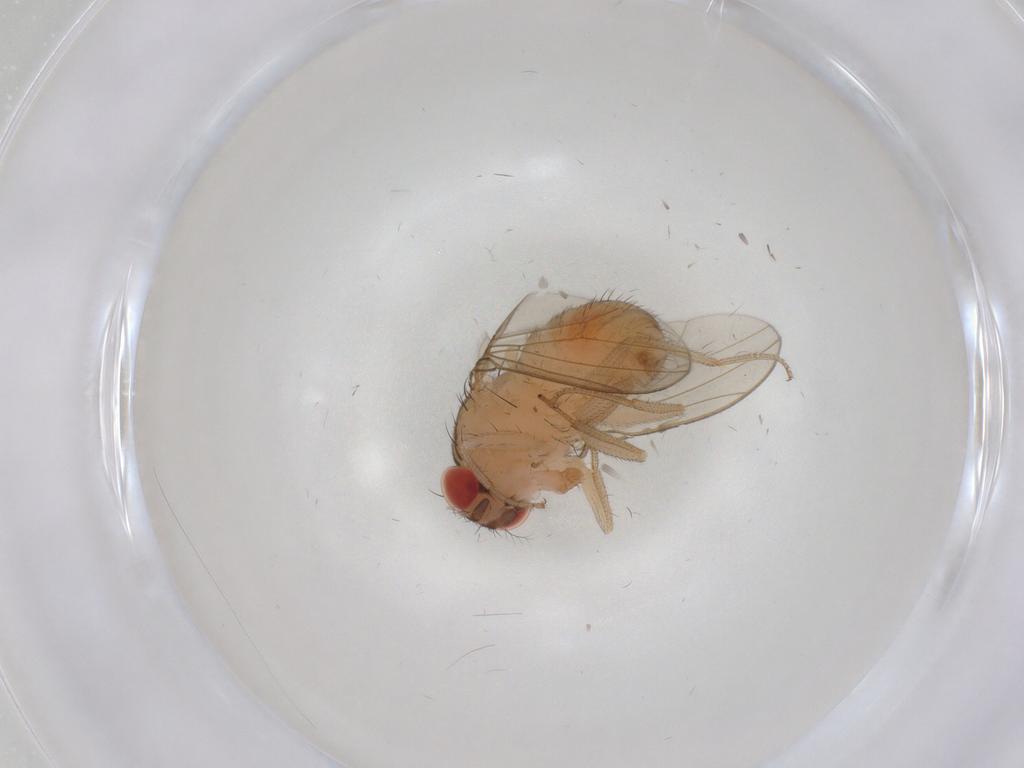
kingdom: Animalia
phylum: Arthropoda
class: Insecta
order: Diptera
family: Drosophilidae
